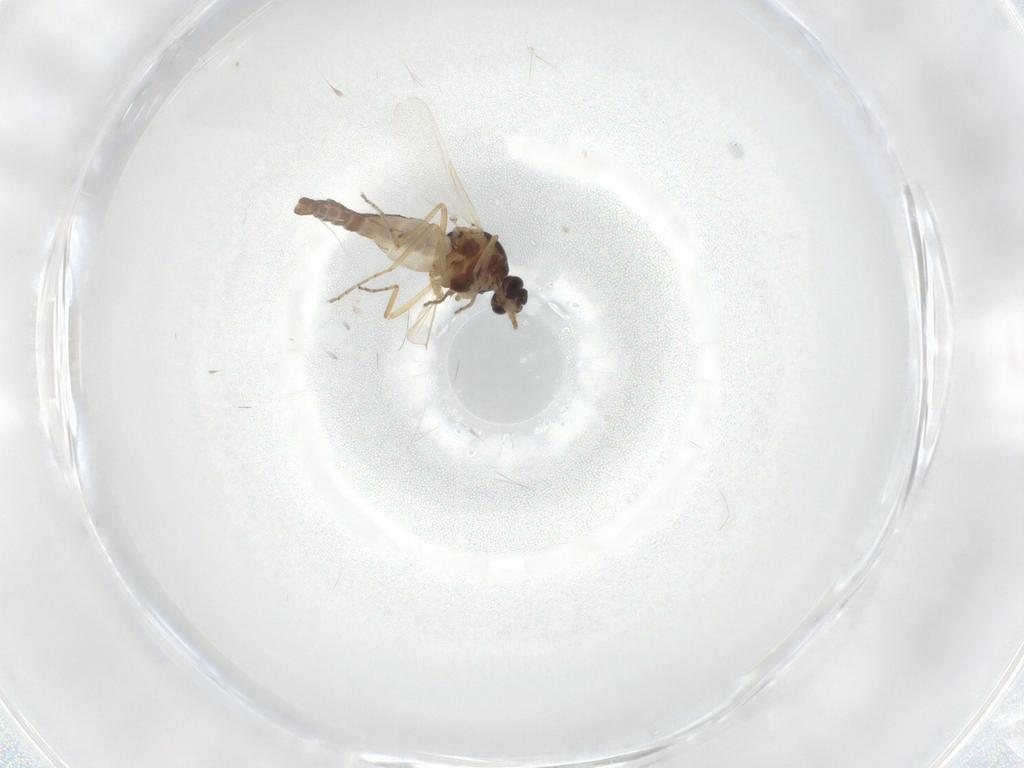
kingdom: Animalia
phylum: Arthropoda
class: Insecta
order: Diptera
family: Ceratopogonidae
